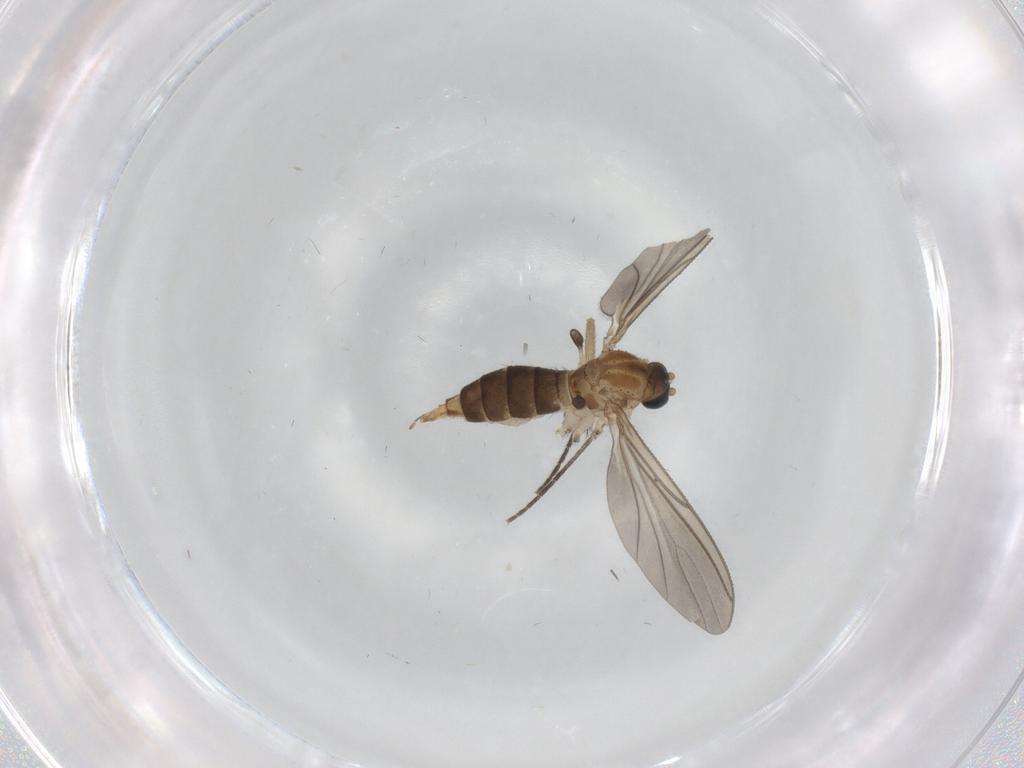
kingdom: Animalia
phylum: Arthropoda
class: Insecta
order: Diptera
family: Sciaridae
